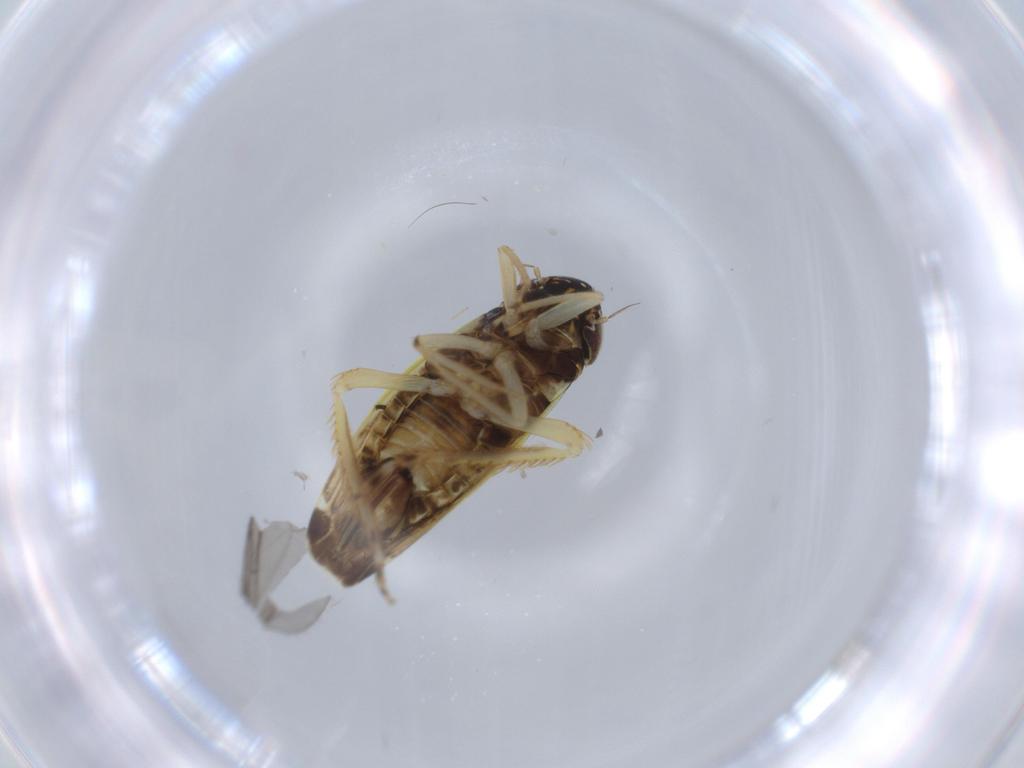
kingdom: Animalia
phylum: Arthropoda
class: Insecta
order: Hemiptera
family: Cicadellidae
